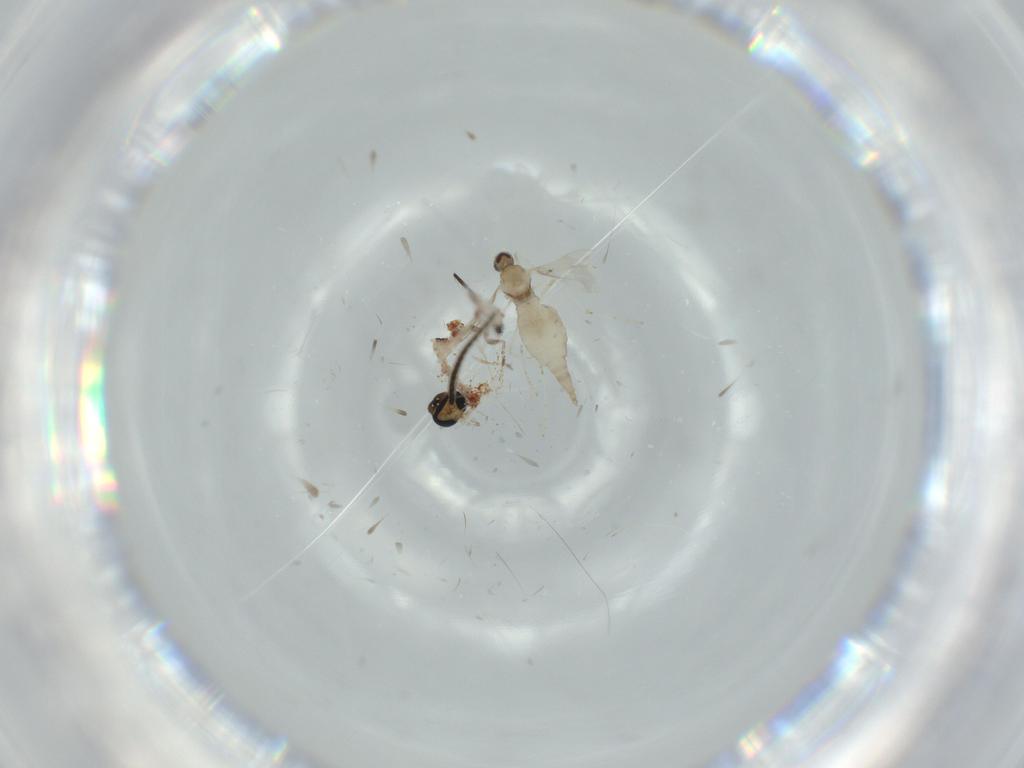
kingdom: Animalia
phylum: Arthropoda
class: Insecta
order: Diptera
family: Sciaridae
